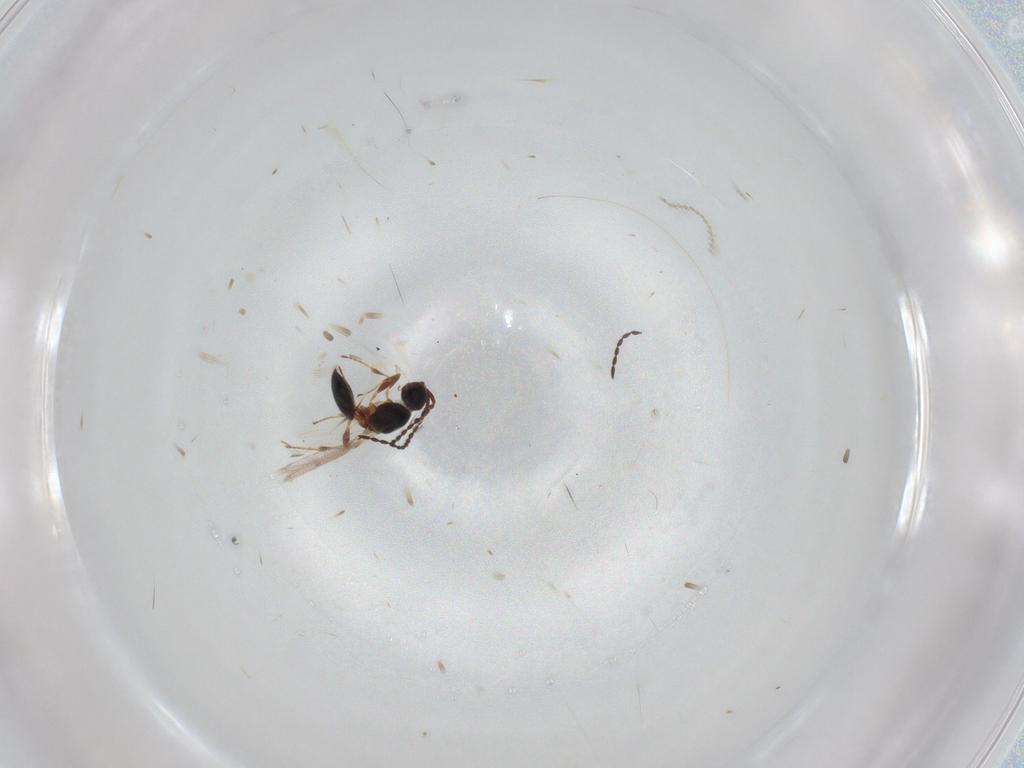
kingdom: Animalia
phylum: Arthropoda
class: Insecta
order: Hymenoptera
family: Diapriidae
